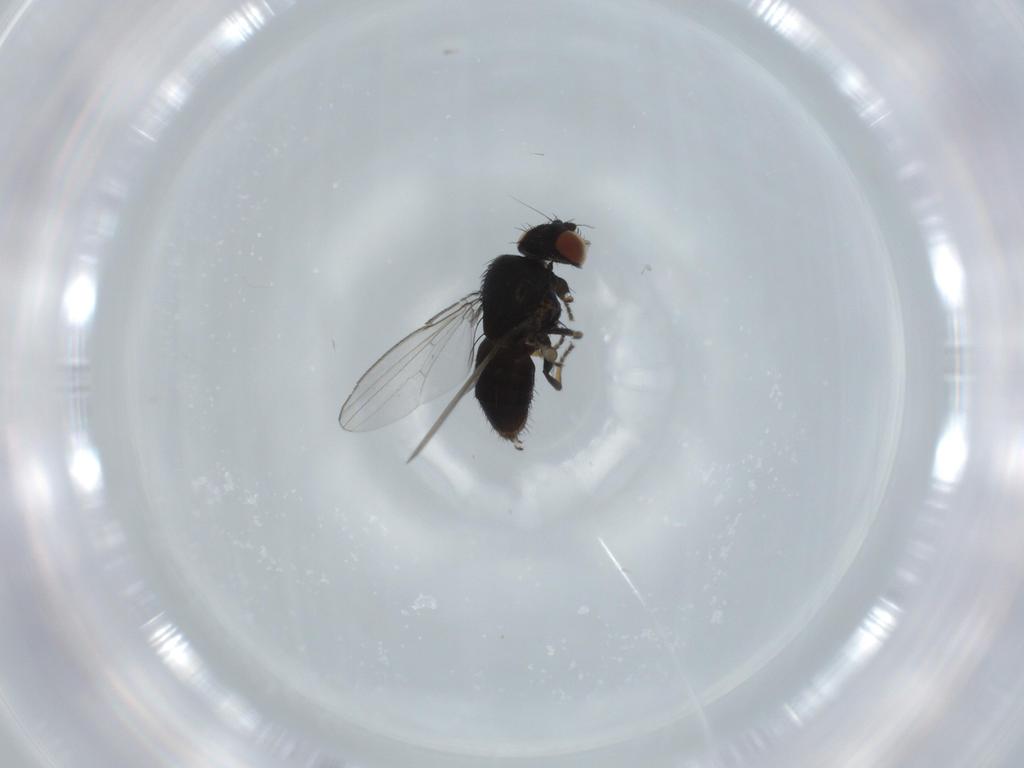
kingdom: Animalia
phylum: Arthropoda
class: Insecta
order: Diptera
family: Milichiidae
